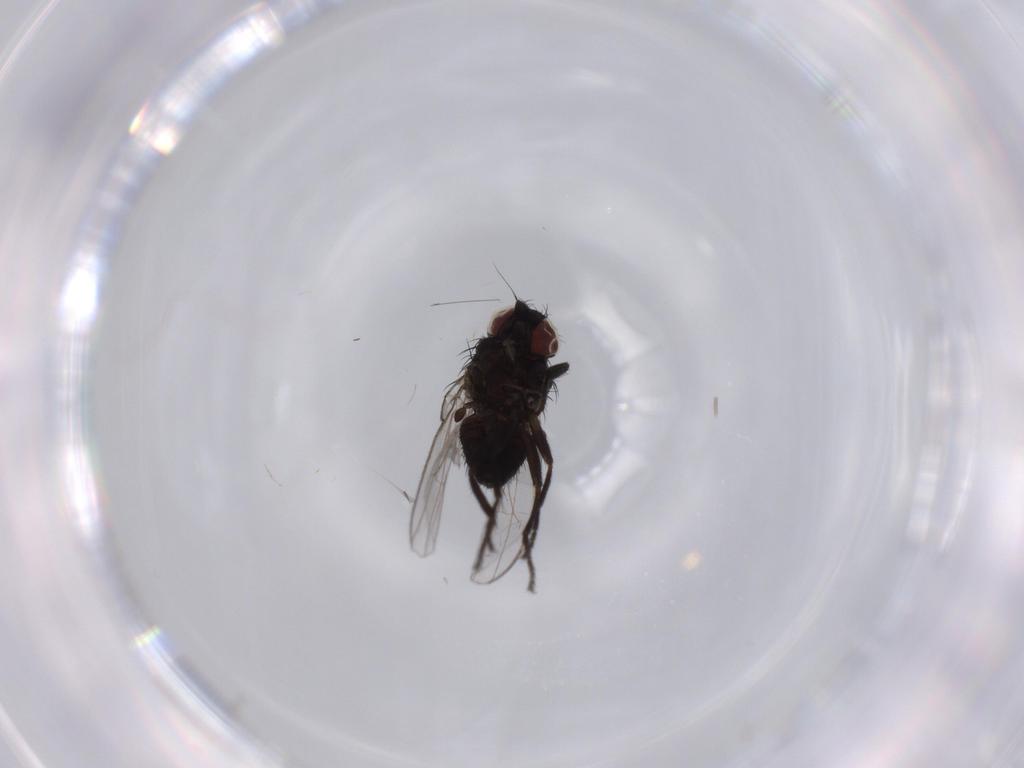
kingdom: Animalia
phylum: Arthropoda
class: Insecta
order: Diptera
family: Milichiidae
